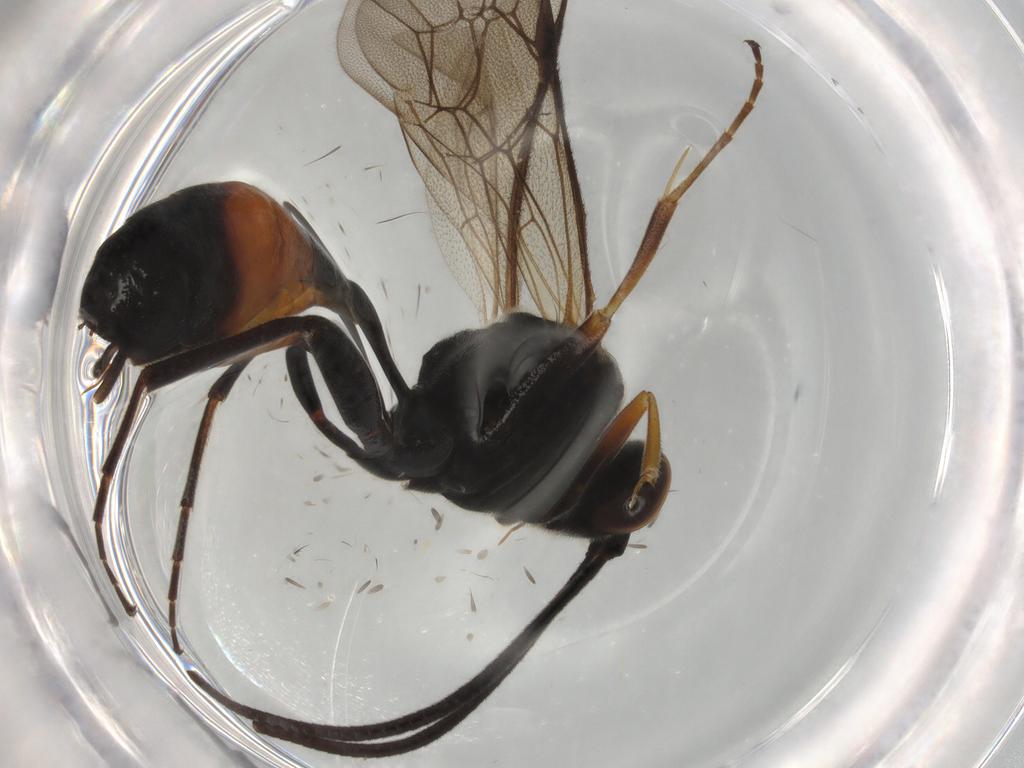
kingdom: Animalia
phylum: Arthropoda
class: Insecta
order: Hymenoptera
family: Ichneumonidae
